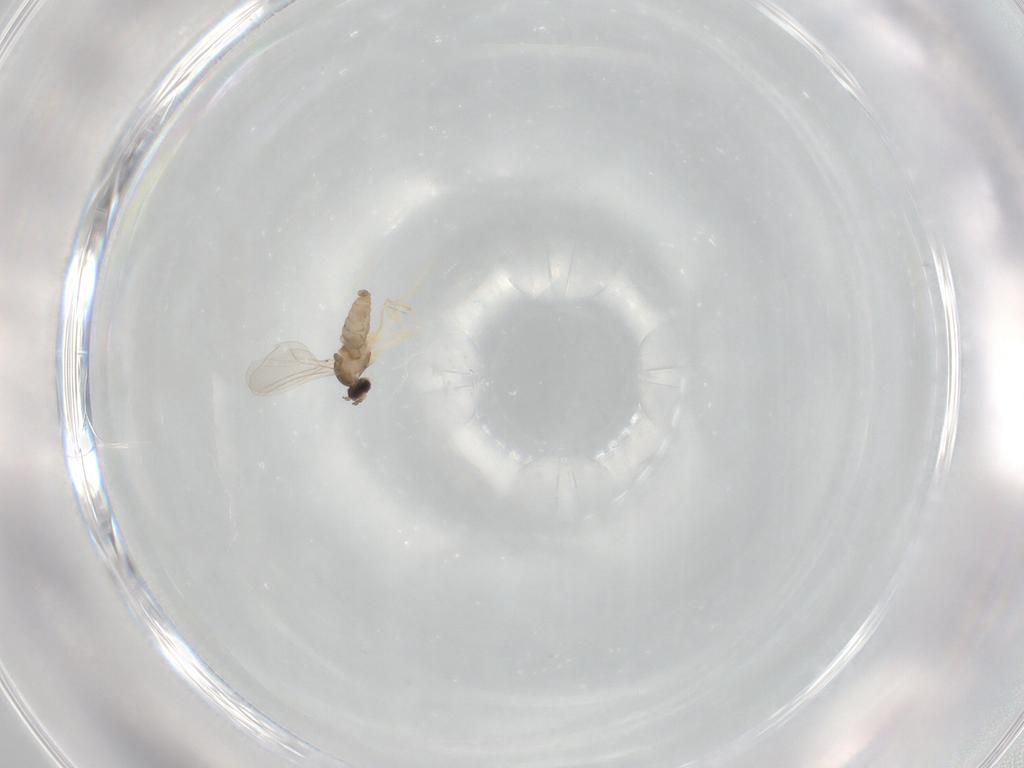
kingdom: Animalia
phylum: Arthropoda
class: Insecta
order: Diptera
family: Cecidomyiidae
